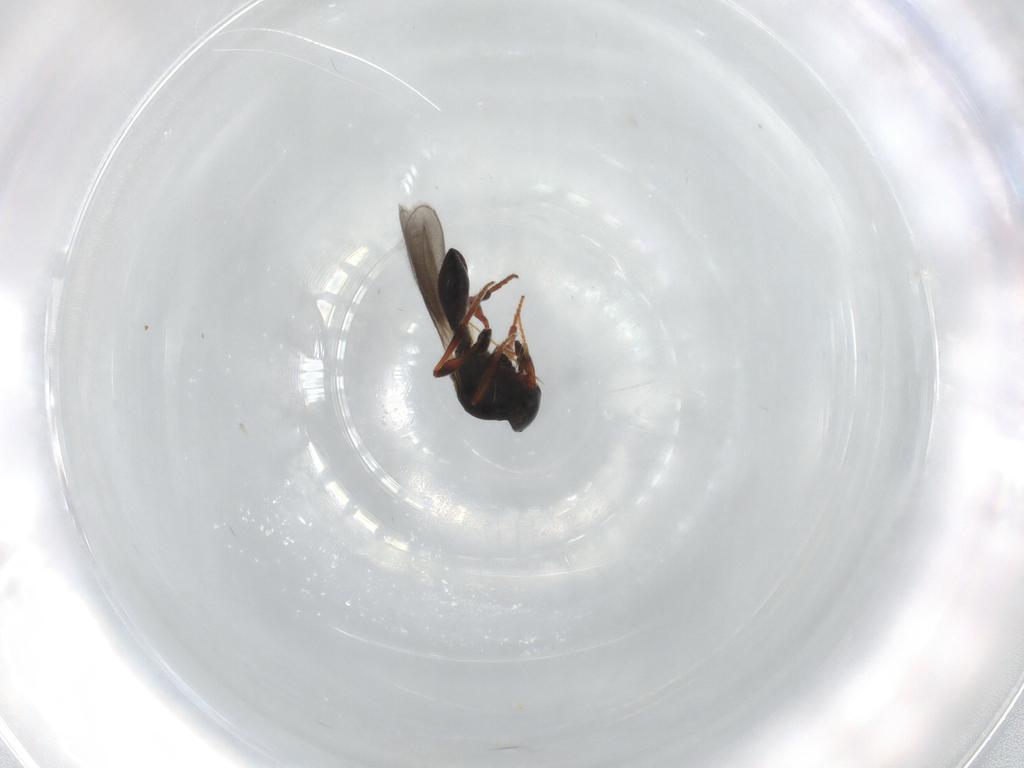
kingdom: Animalia
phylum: Arthropoda
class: Insecta
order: Hymenoptera
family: Platygastridae
